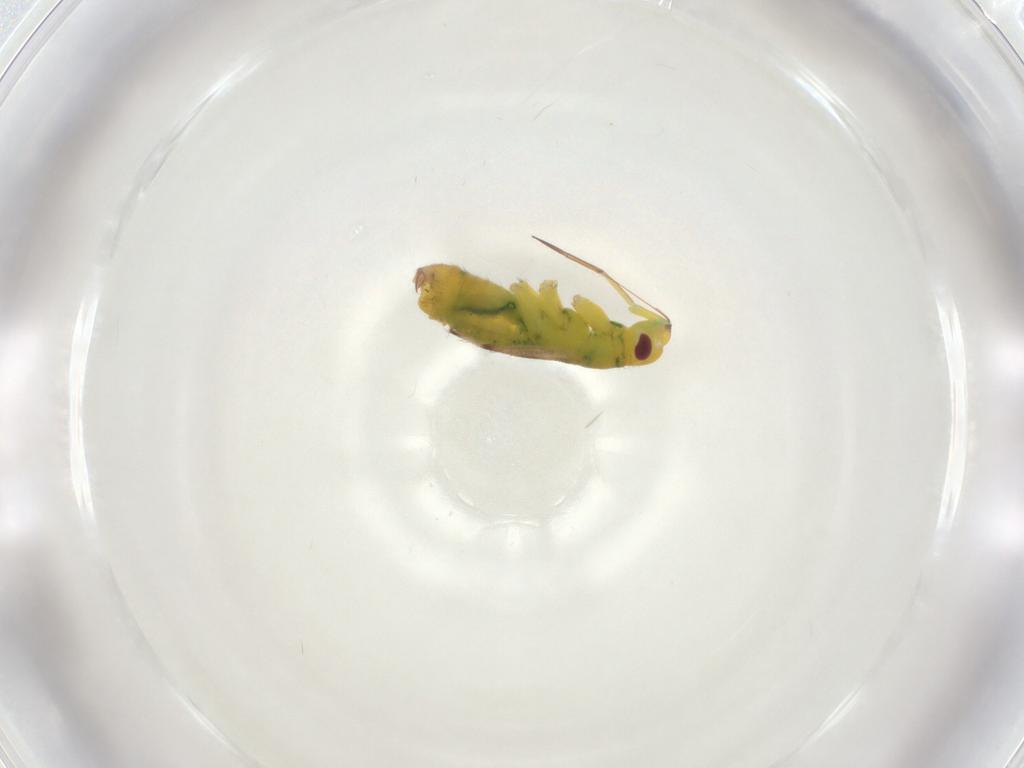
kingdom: Animalia
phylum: Arthropoda
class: Insecta
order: Hemiptera
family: Miridae
